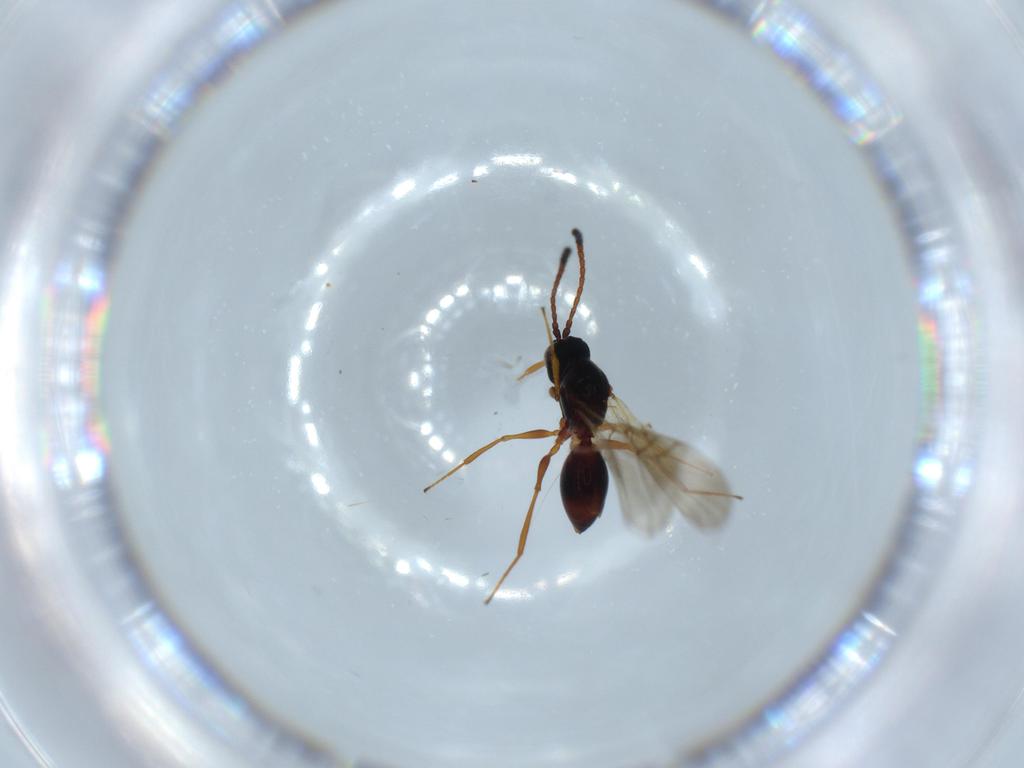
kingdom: Animalia
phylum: Arthropoda
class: Insecta
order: Hymenoptera
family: Figitidae
